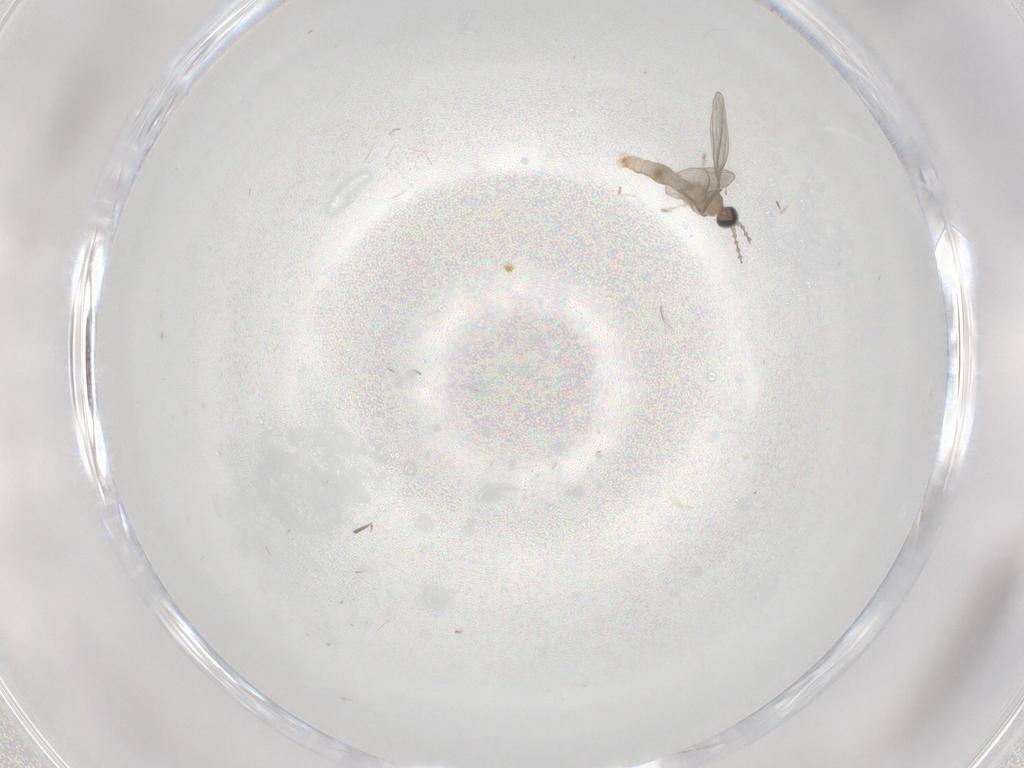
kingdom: Animalia
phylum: Arthropoda
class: Insecta
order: Diptera
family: Cecidomyiidae
